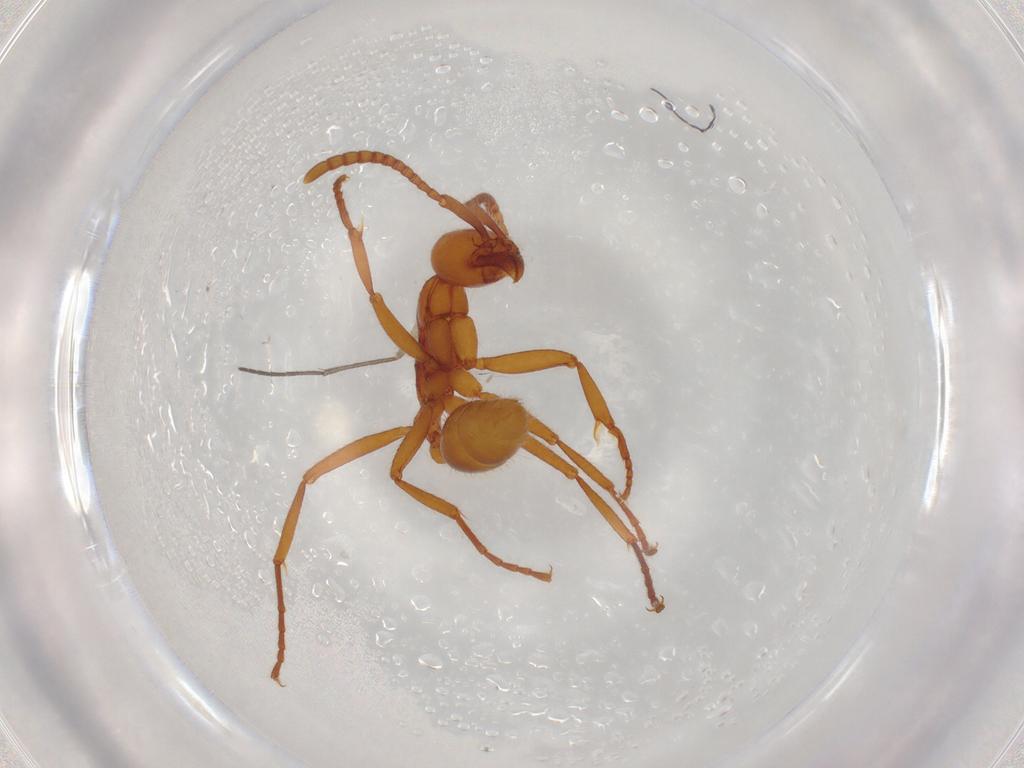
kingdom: Animalia
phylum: Arthropoda
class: Insecta
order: Hymenoptera
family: Formicidae
